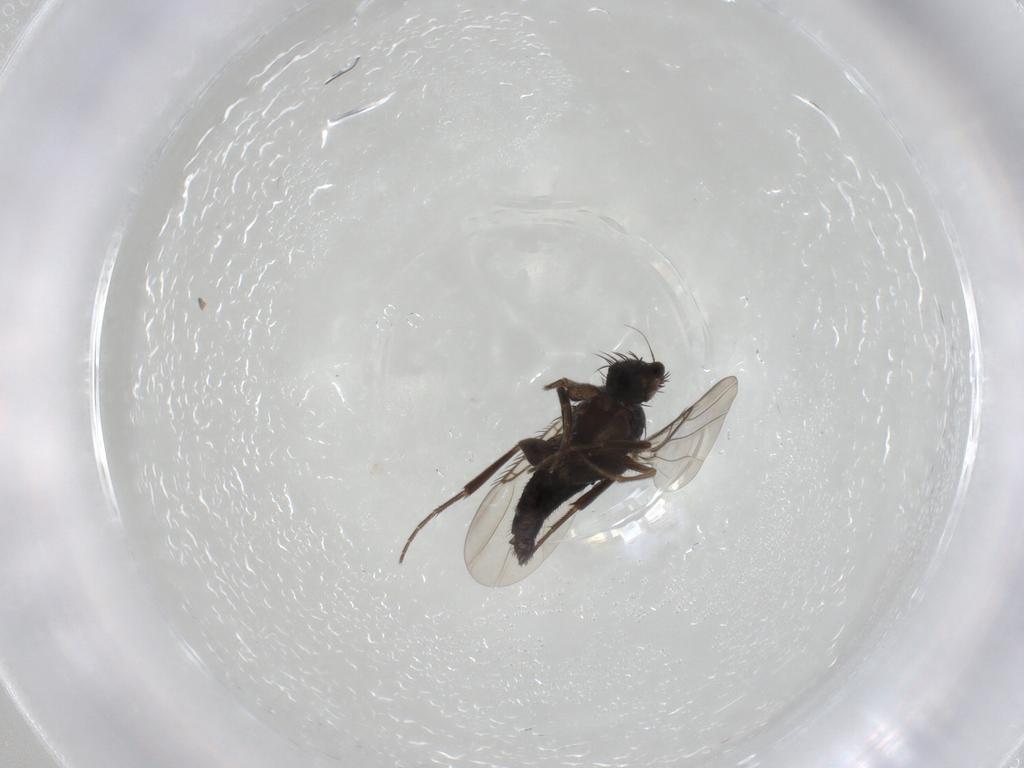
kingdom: Animalia
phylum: Arthropoda
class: Insecta
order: Diptera
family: Phoridae
